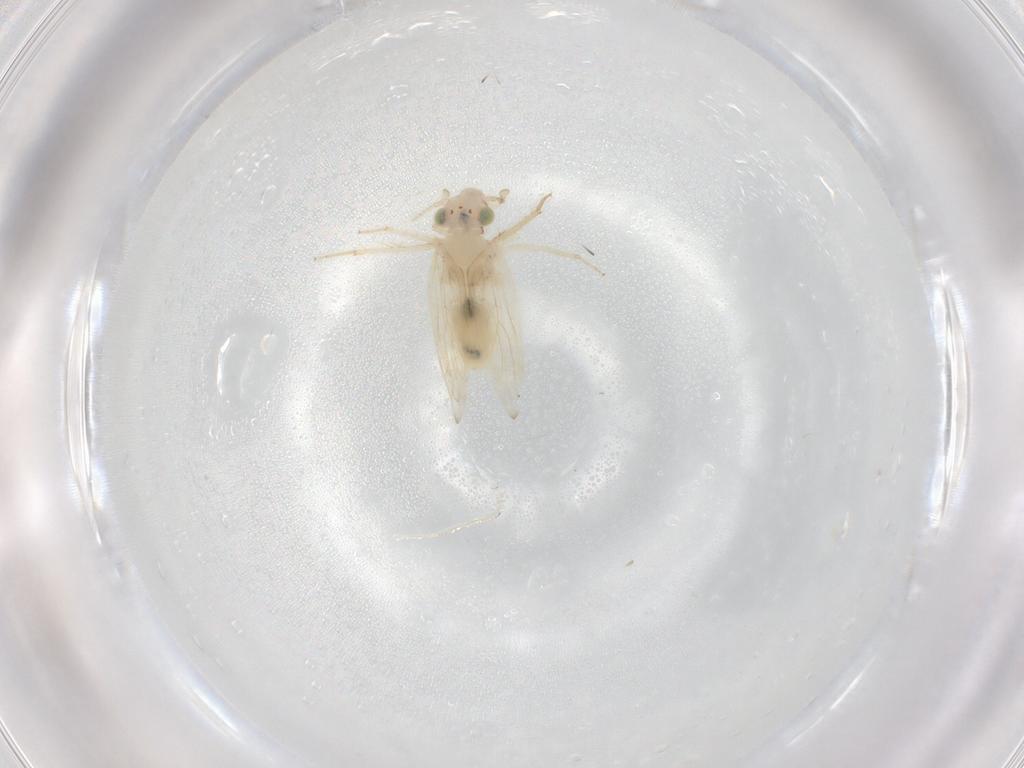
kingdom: Animalia
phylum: Arthropoda
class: Insecta
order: Psocodea
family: Lepidopsocidae
